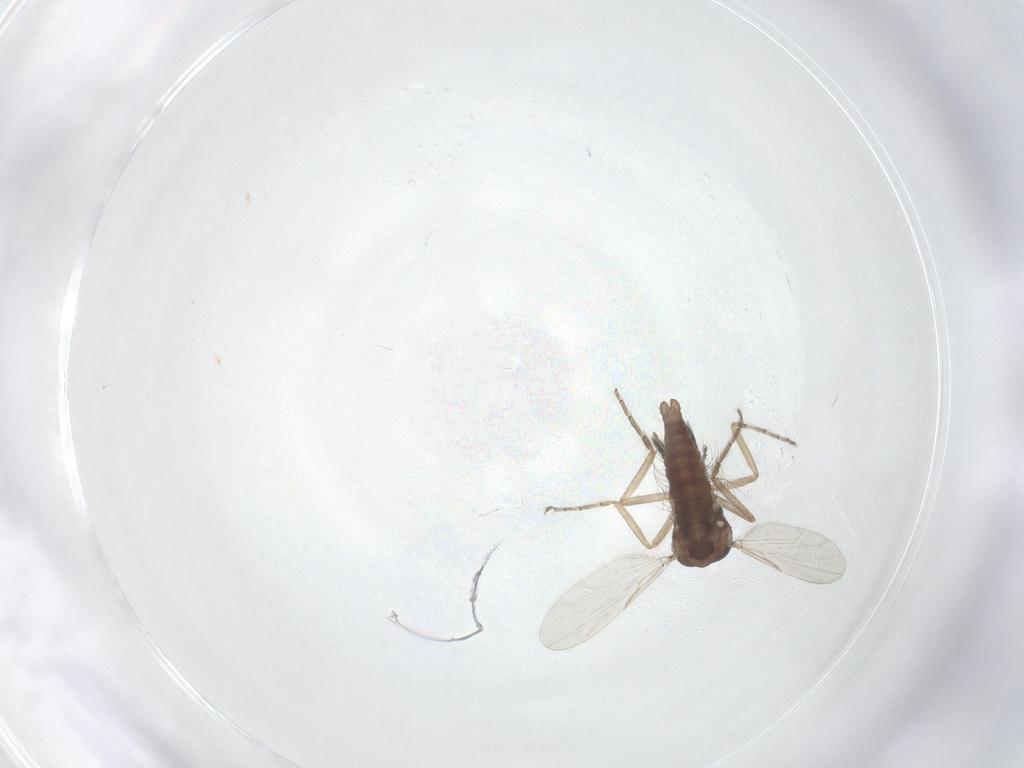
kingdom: Animalia
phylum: Arthropoda
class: Insecta
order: Diptera
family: Ceratopogonidae
